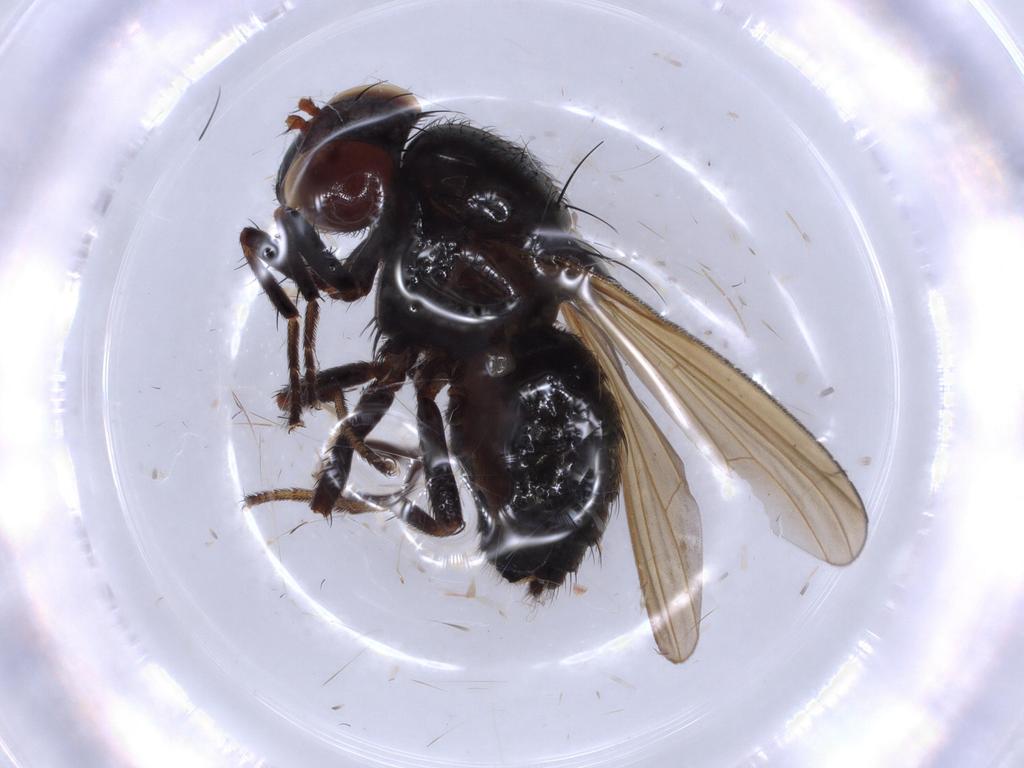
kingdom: Animalia
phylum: Arthropoda
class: Insecta
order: Diptera
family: Lauxaniidae
